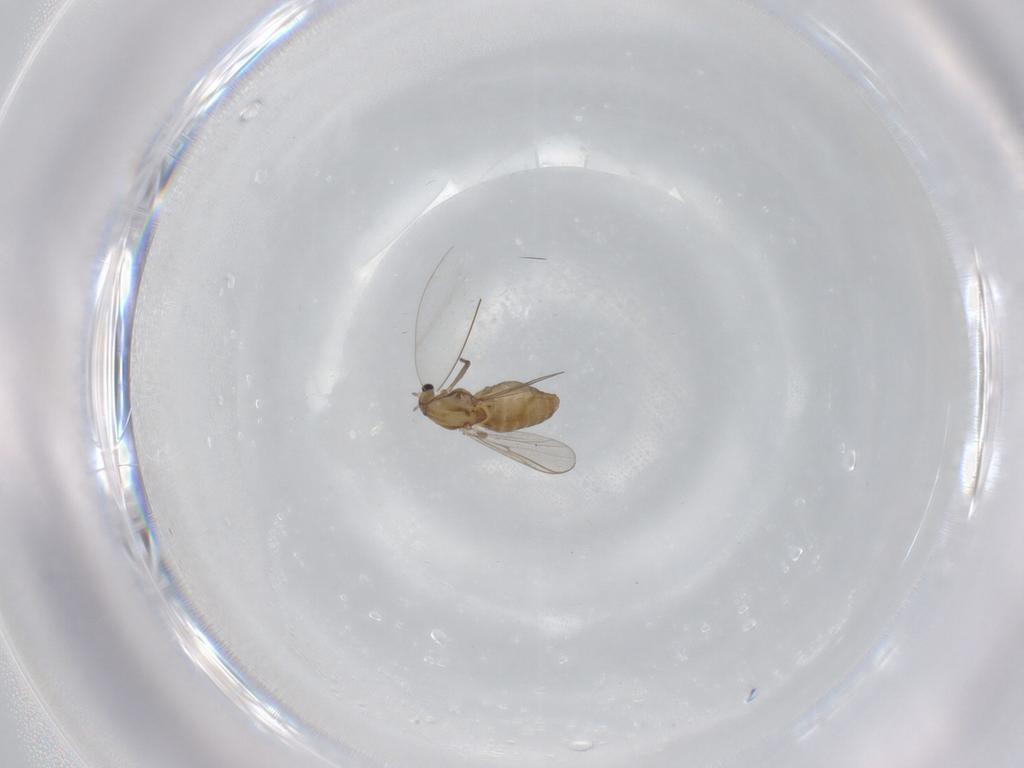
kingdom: Animalia
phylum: Arthropoda
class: Insecta
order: Diptera
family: Chironomidae
